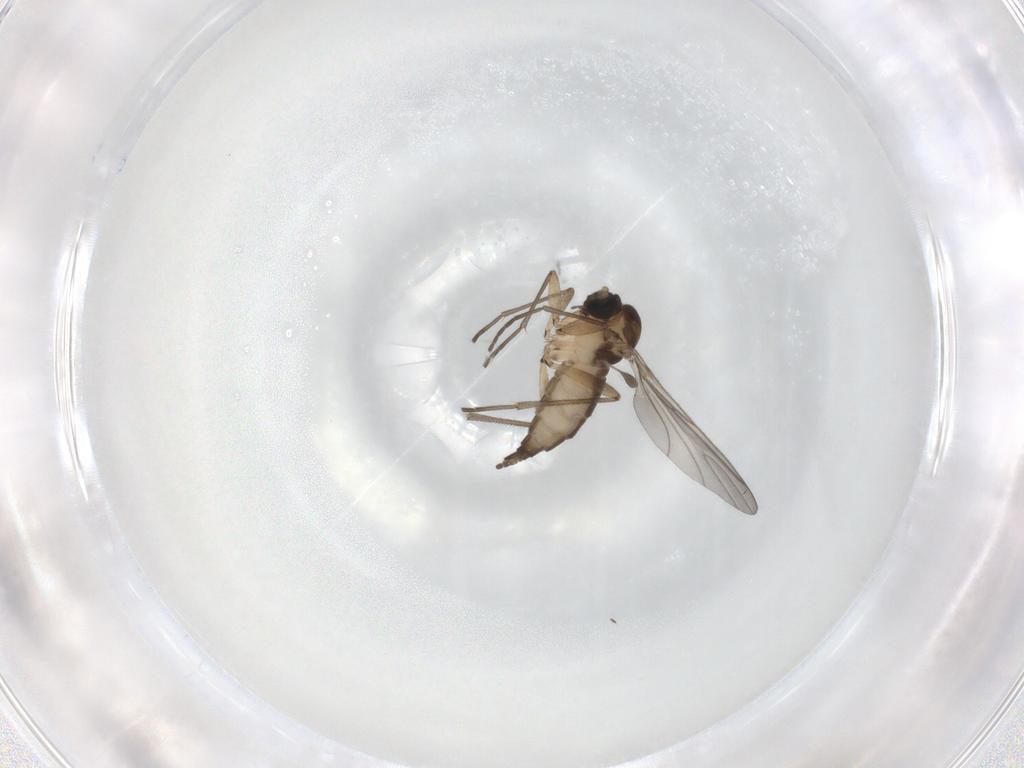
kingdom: Animalia
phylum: Arthropoda
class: Insecta
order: Diptera
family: Sciaridae
